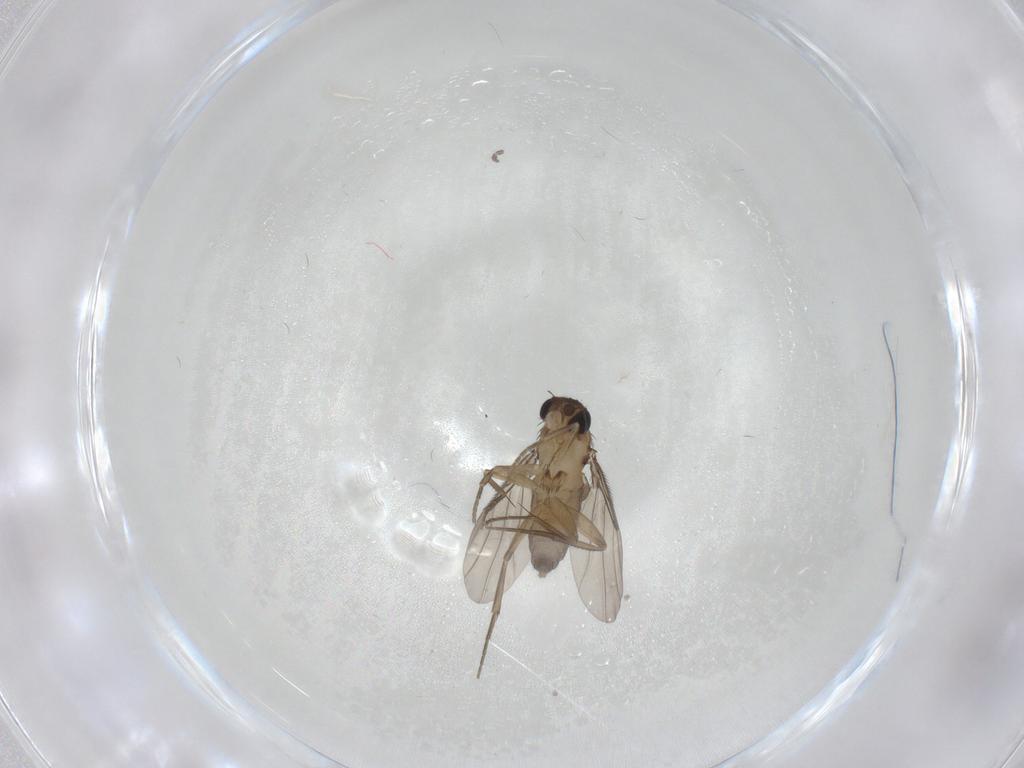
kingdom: Animalia
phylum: Arthropoda
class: Insecta
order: Diptera
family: Phoridae
